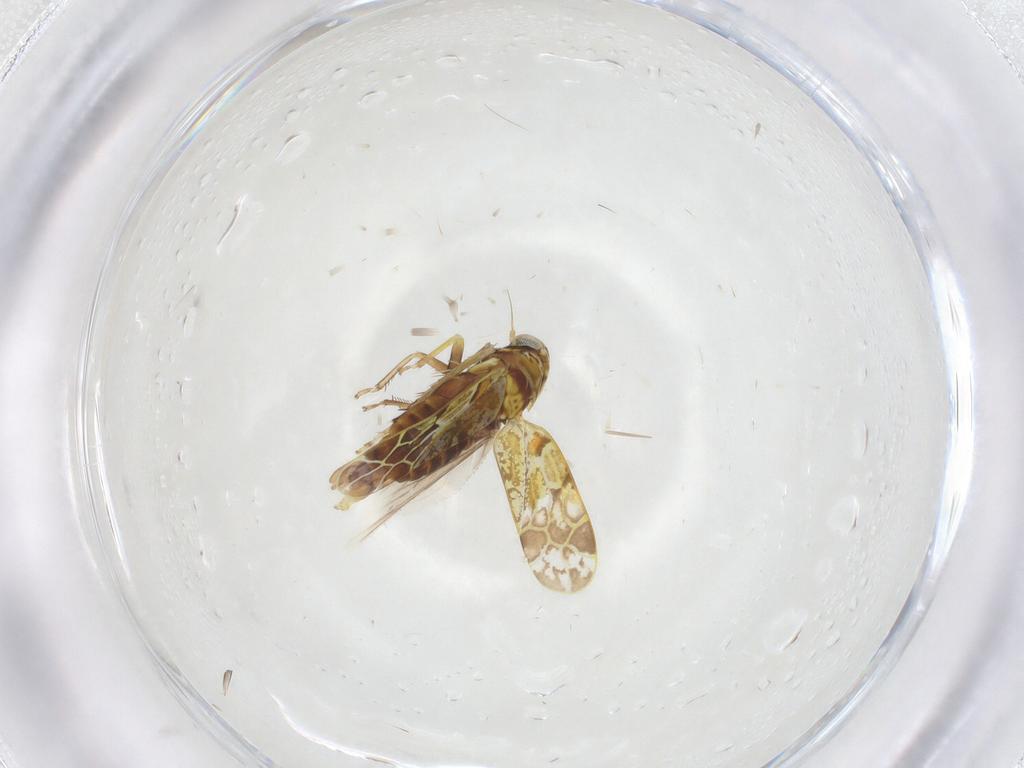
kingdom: Animalia
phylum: Arthropoda
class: Insecta
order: Hemiptera
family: Cicadellidae
